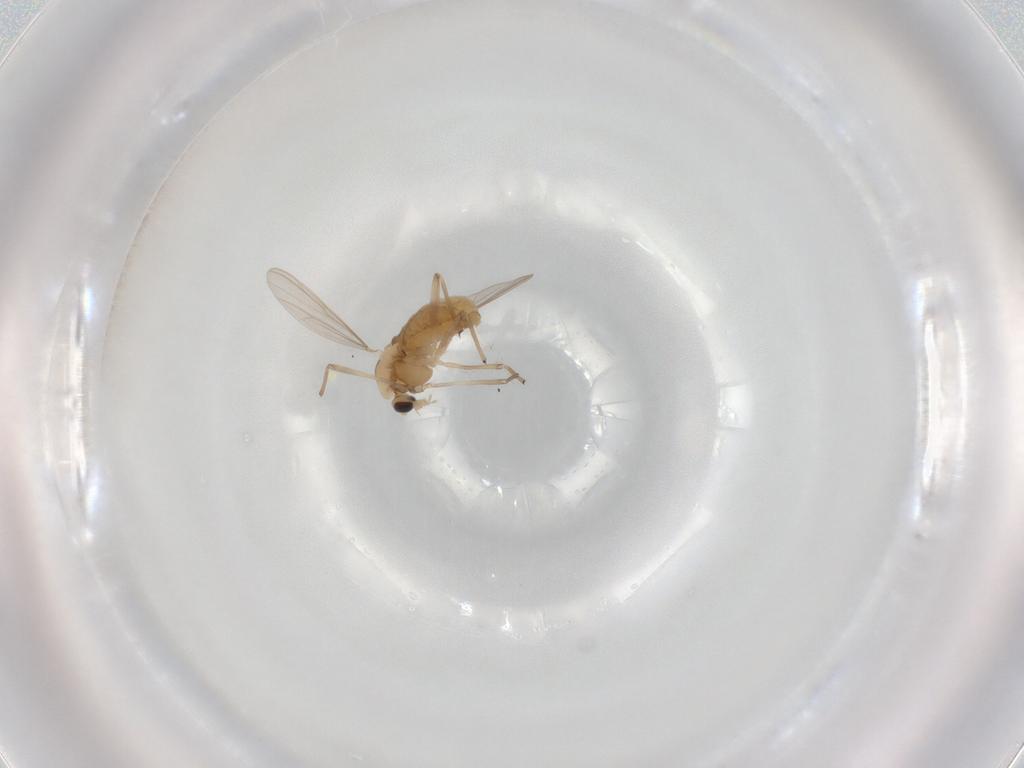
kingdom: Animalia
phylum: Arthropoda
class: Insecta
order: Diptera
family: Chironomidae
